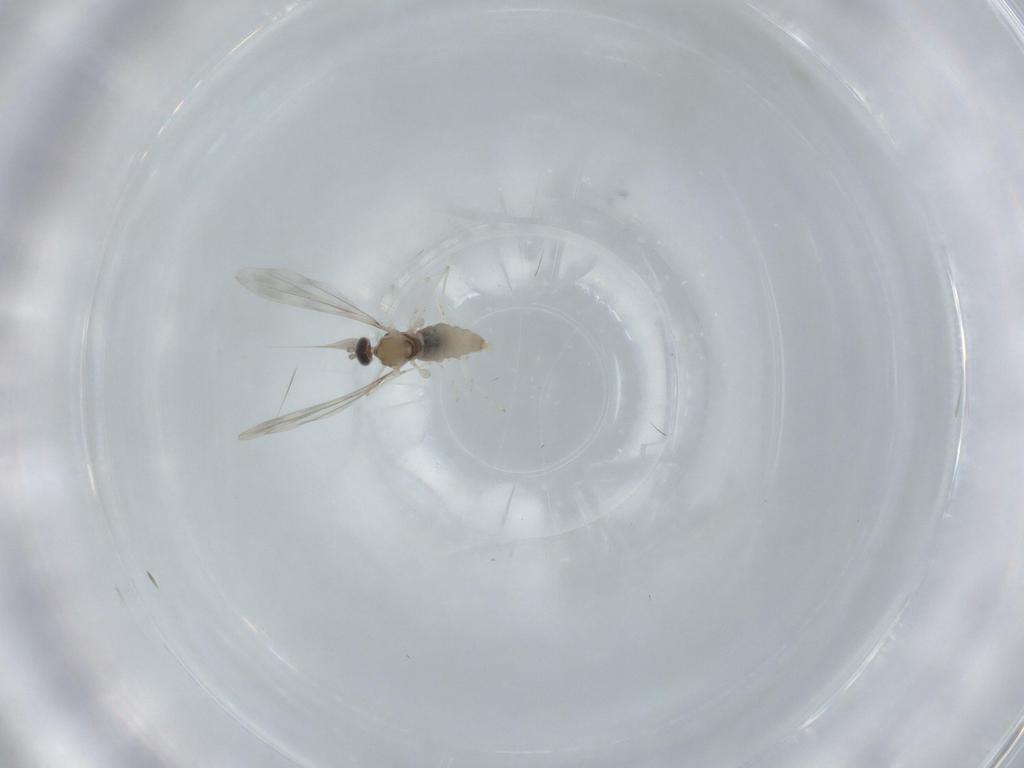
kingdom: Animalia
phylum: Arthropoda
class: Insecta
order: Diptera
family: Cecidomyiidae
